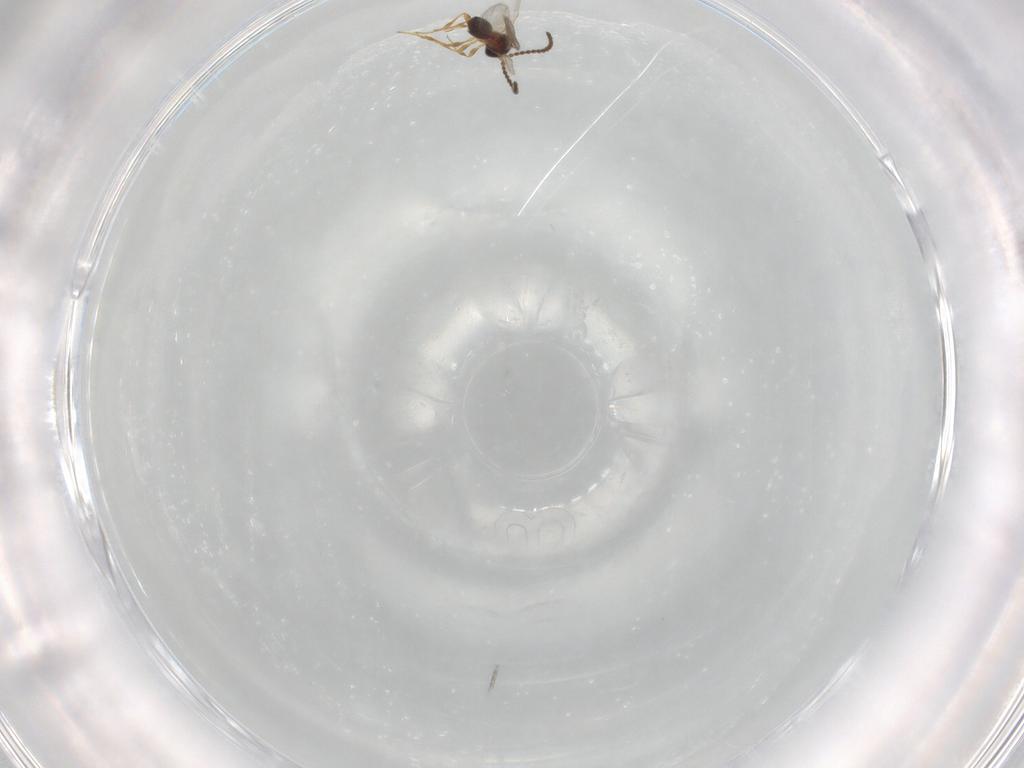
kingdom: Animalia
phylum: Arthropoda
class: Insecta
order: Hymenoptera
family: Diapriidae
